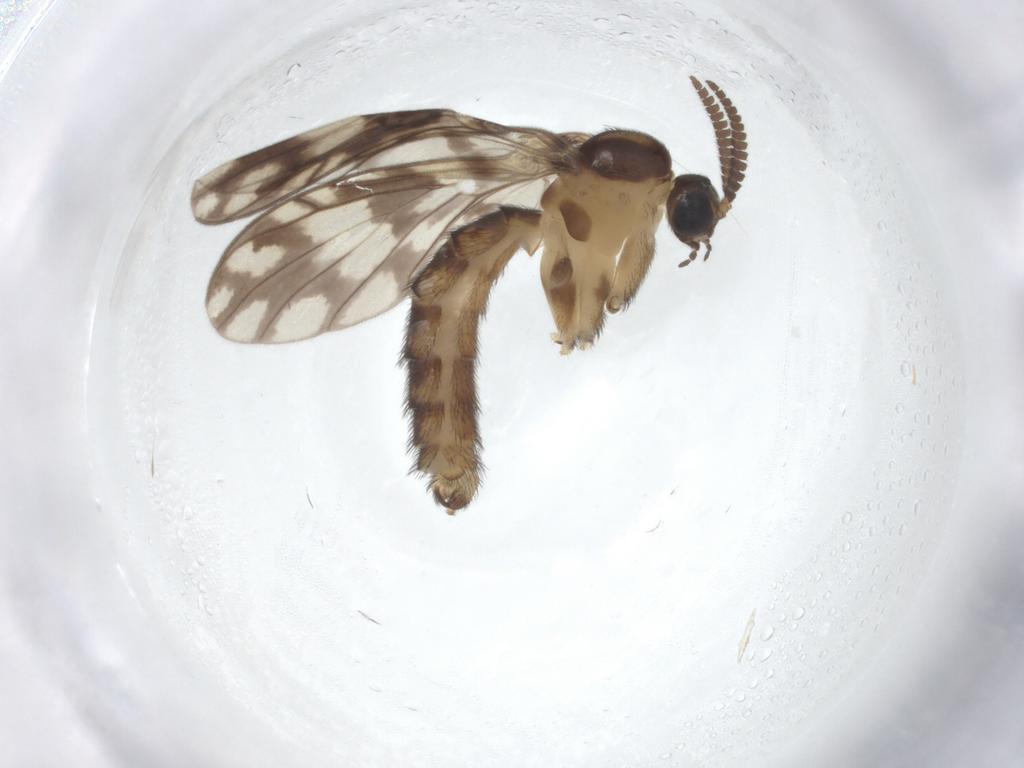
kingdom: Animalia
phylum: Arthropoda
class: Insecta
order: Diptera
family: Keroplatidae
